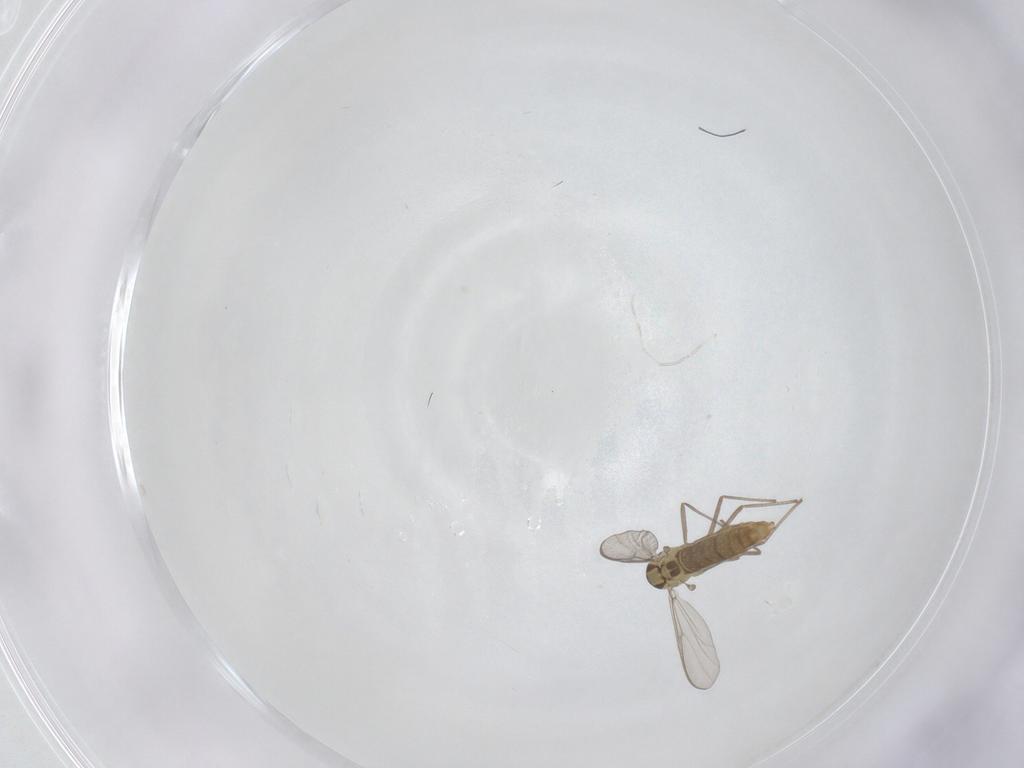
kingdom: Animalia
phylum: Arthropoda
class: Insecta
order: Diptera
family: Chironomidae
